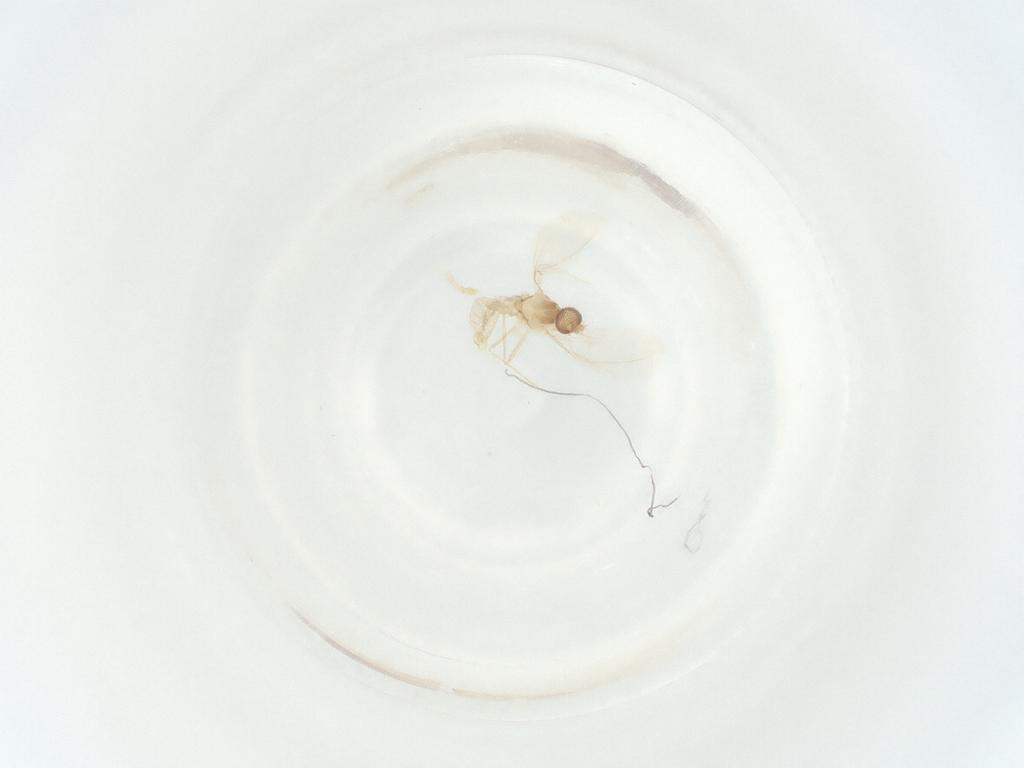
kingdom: Animalia
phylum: Arthropoda
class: Insecta
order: Diptera
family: Cecidomyiidae
